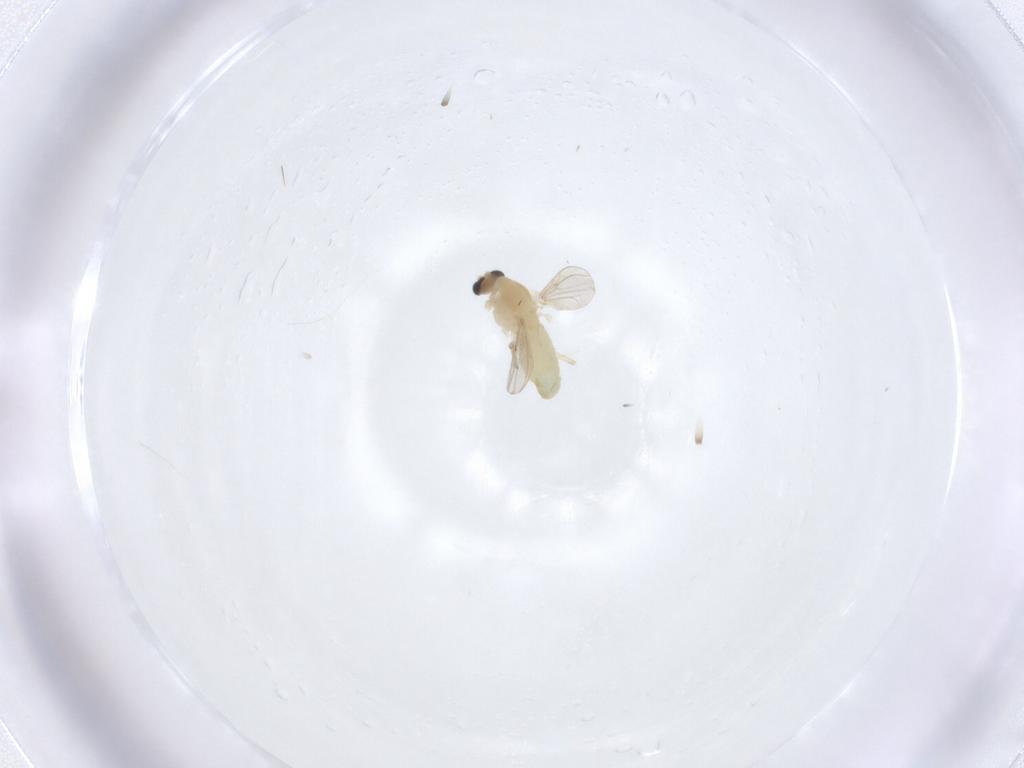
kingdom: Animalia
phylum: Arthropoda
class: Insecta
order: Diptera
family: Chironomidae
